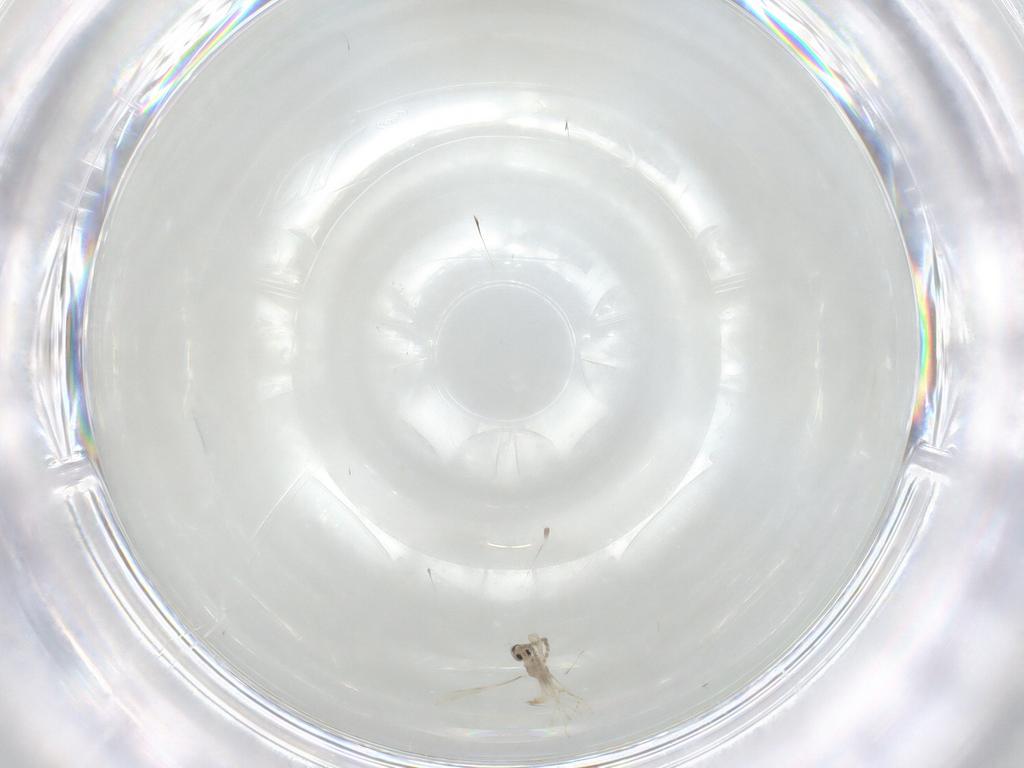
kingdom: Animalia
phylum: Arthropoda
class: Insecta
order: Diptera
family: Cecidomyiidae
